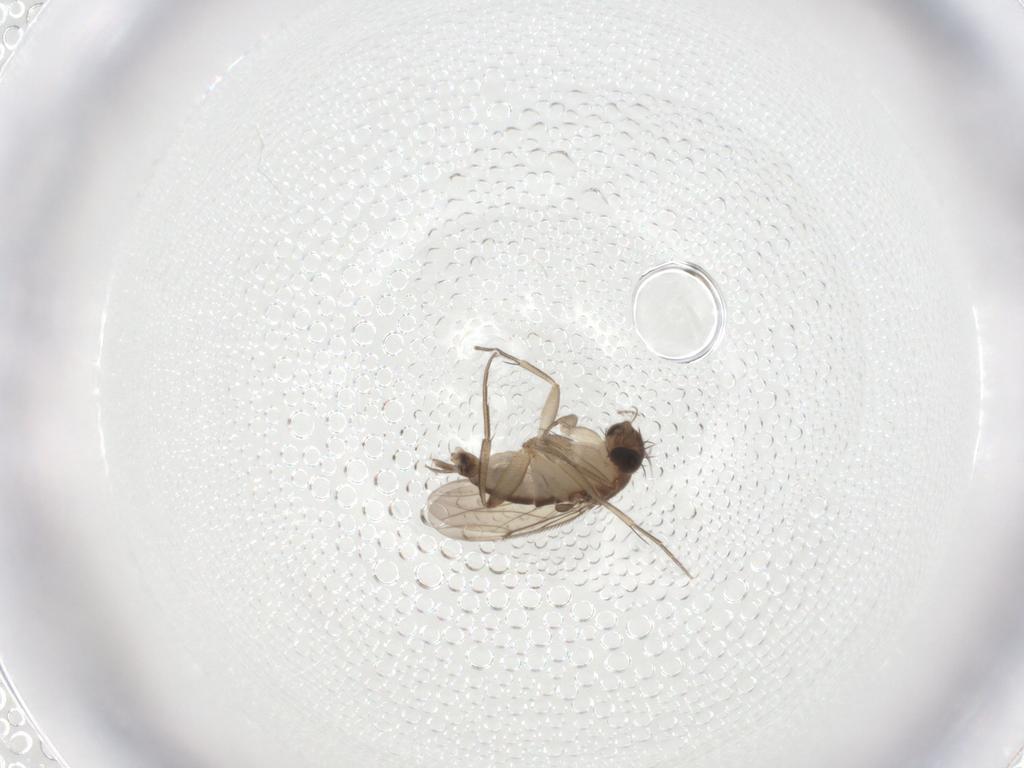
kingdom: Animalia
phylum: Arthropoda
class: Insecta
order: Diptera
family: Phoridae
